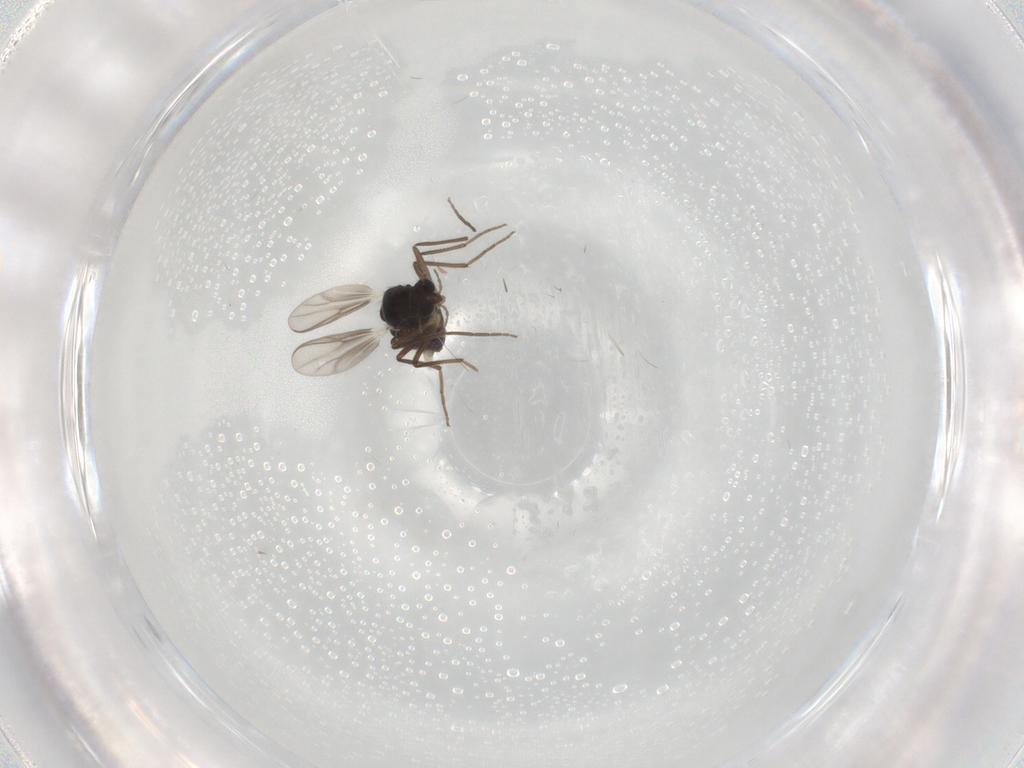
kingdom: Animalia
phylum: Arthropoda
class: Insecta
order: Diptera
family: Chironomidae
